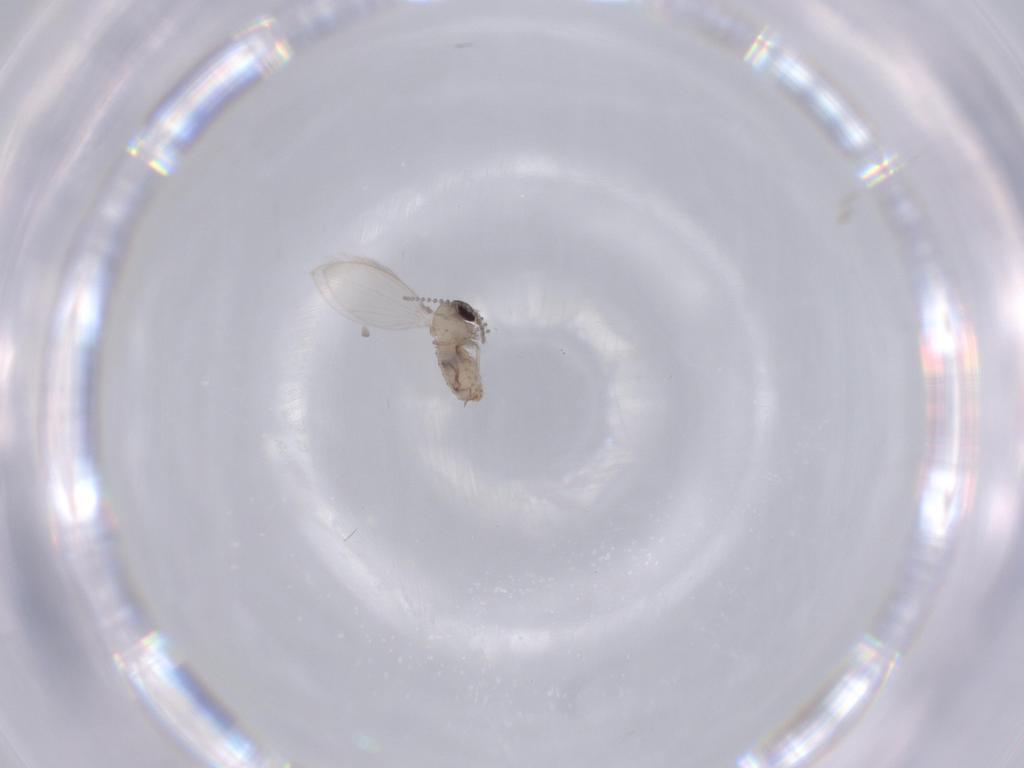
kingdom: Animalia
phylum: Arthropoda
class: Insecta
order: Diptera
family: Psychodidae
